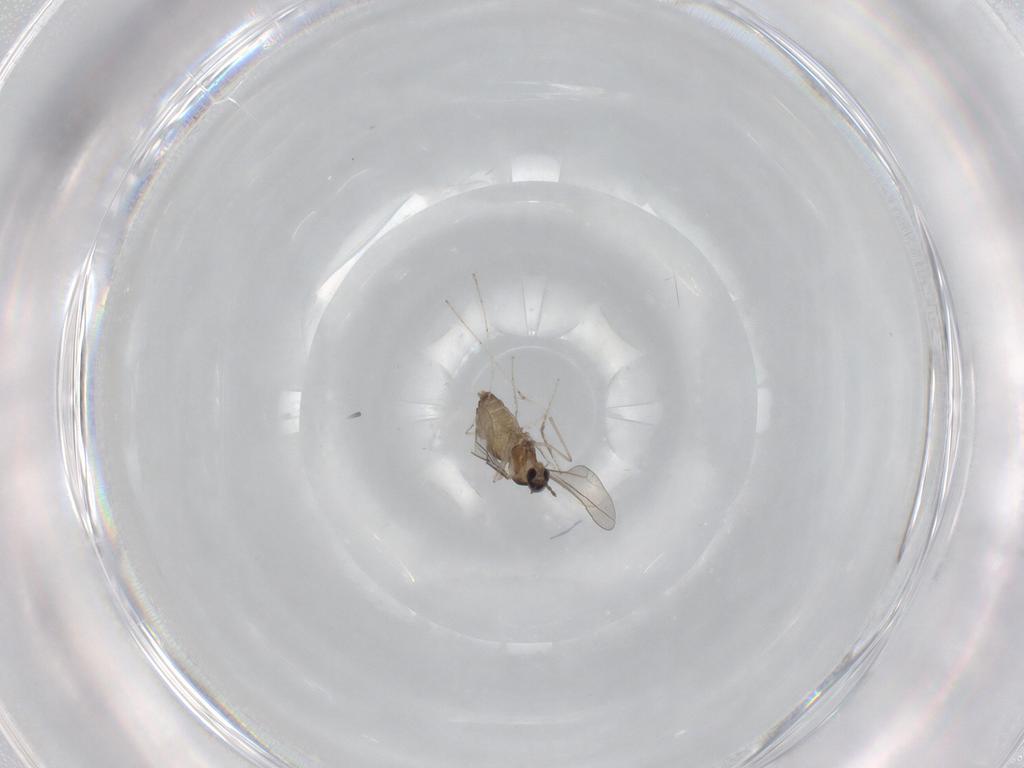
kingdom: Animalia
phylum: Arthropoda
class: Insecta
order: Diptera
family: Cecidomyiidae
